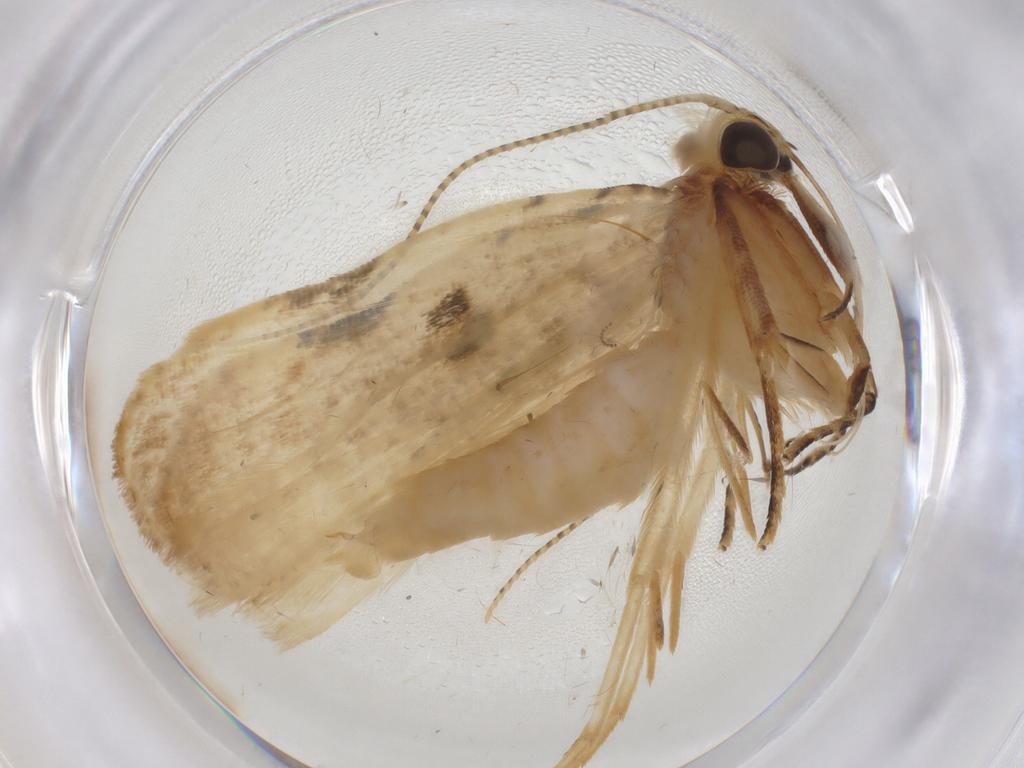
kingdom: Animalia
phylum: Arthropoda
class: Insecta
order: Lepidoptera
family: Gelechiidae
